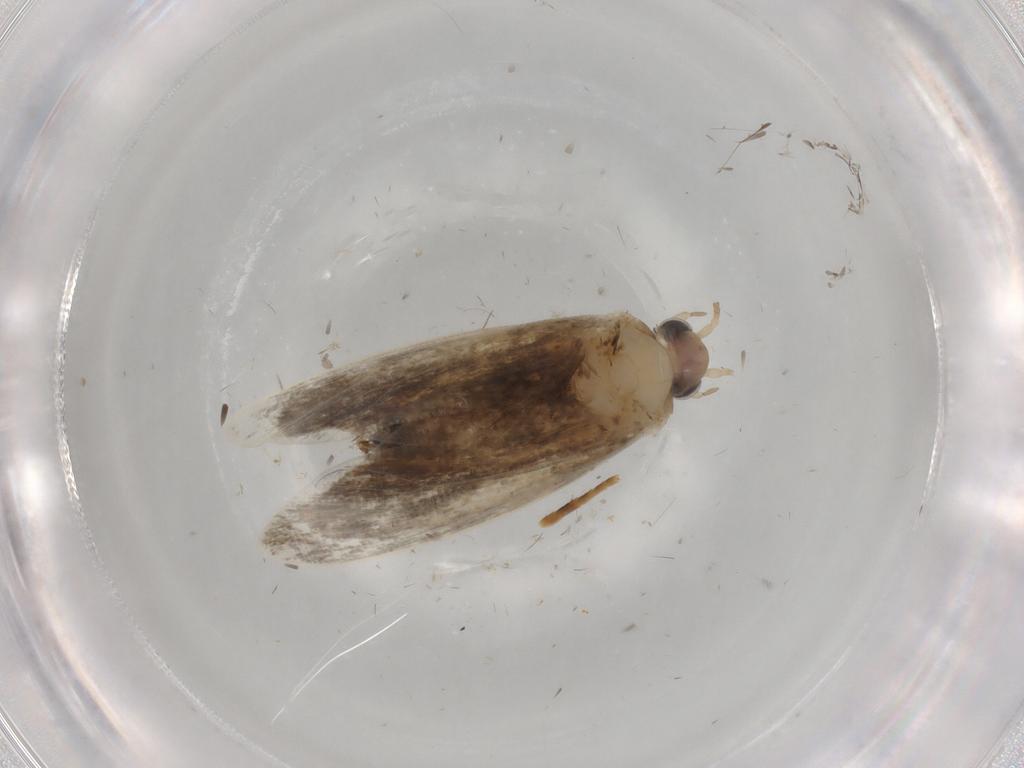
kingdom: Animalia
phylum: Arthropoda
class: Insecta
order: Lepidoptera
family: Psychidae
